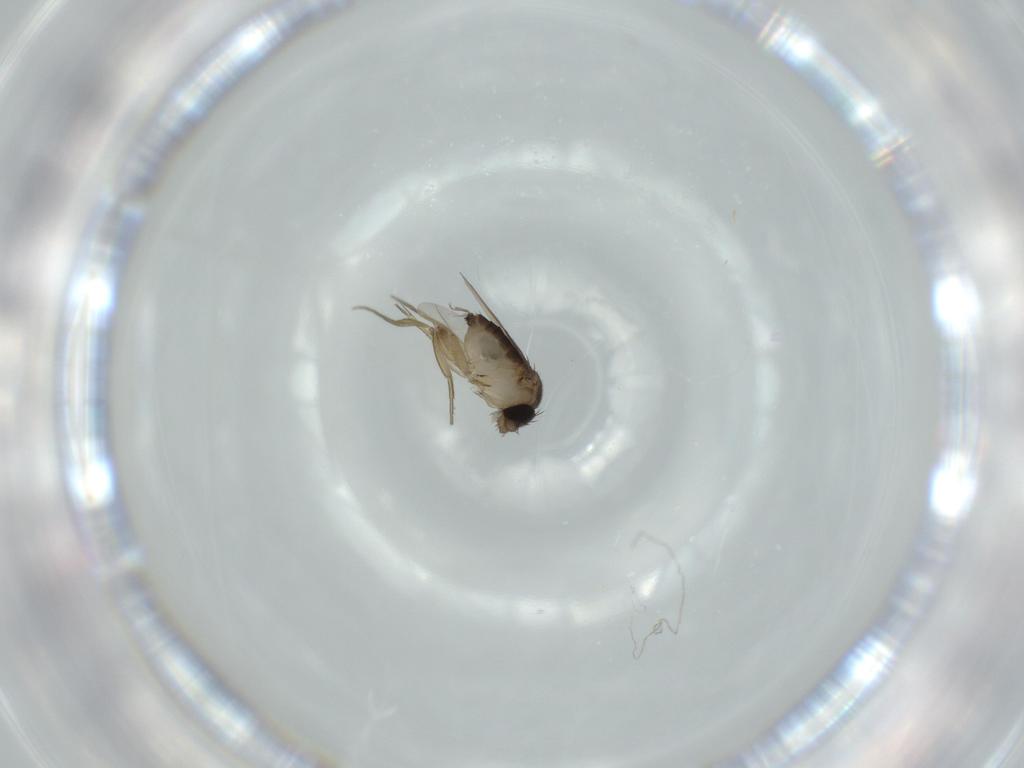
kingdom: Animalia
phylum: Arthropoda
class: Insecta
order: Diptera
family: Phoridae
